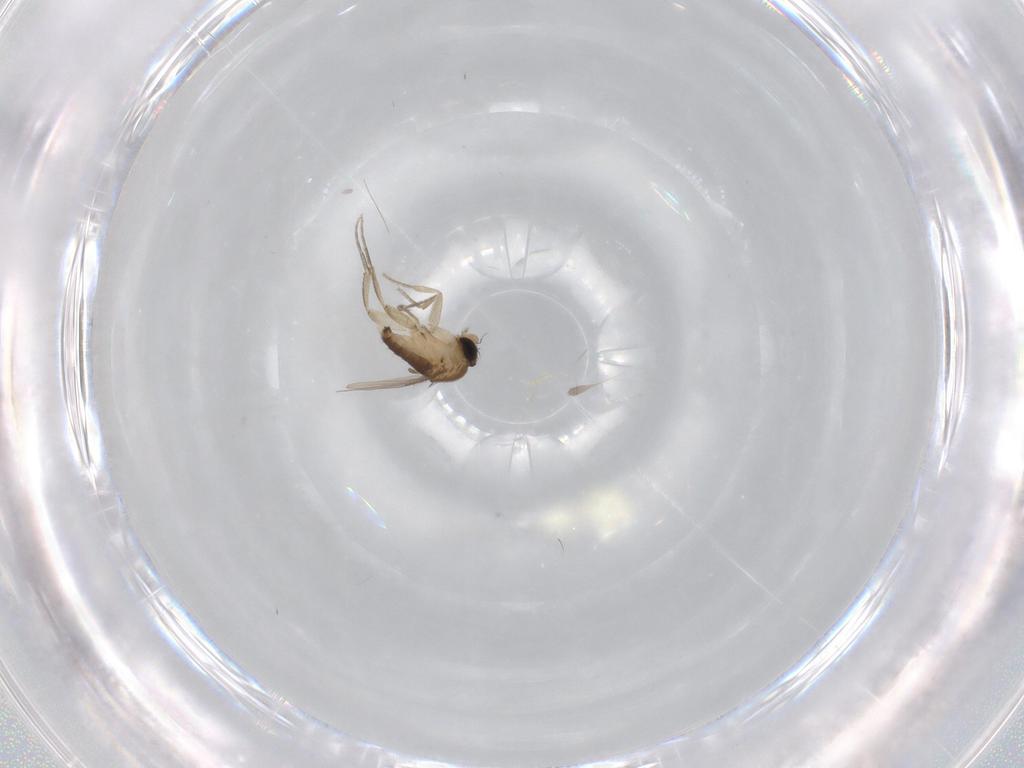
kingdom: Animalia
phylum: Arthropoda
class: Insecta
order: Diptera
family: Phoridae
